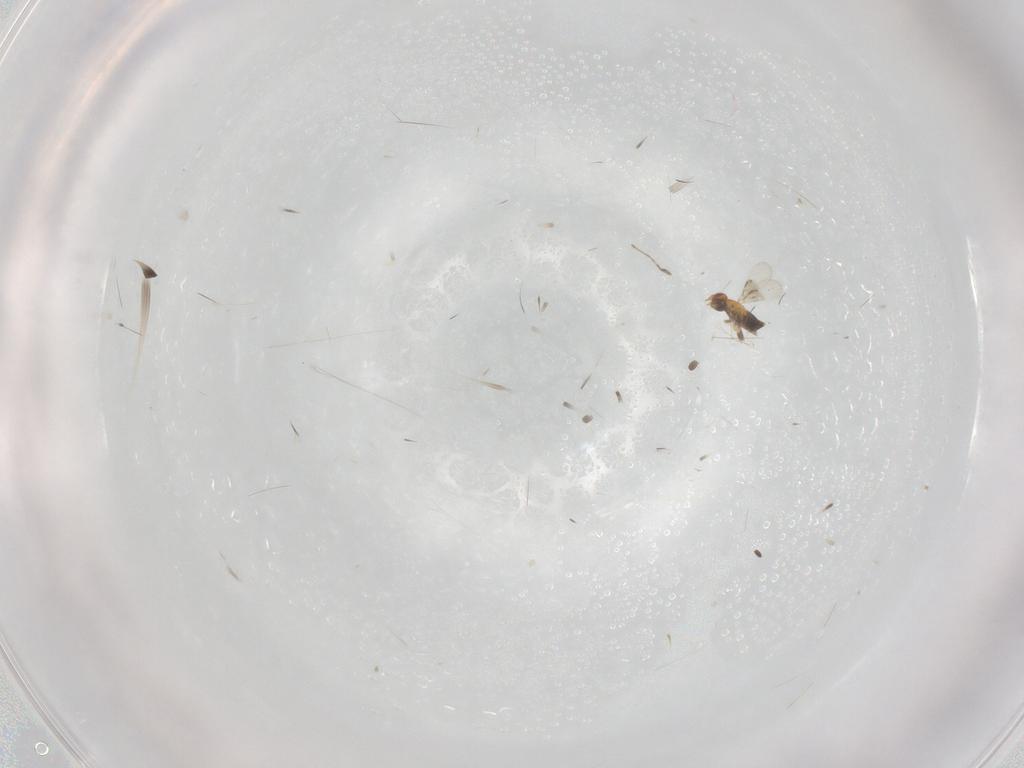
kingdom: Animalia
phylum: Arthropoda
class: Insecta
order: Hymenoptera
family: Trichogrammatidae
